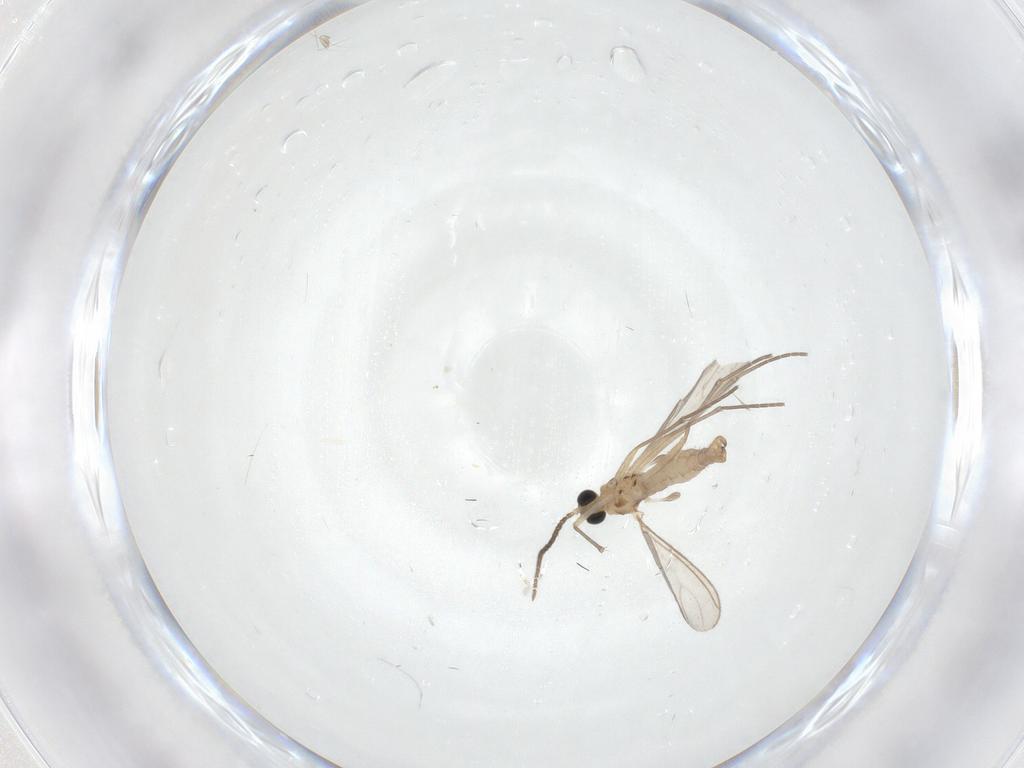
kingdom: Animalia
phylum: Arthropoda
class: Insecta
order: Diptera
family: Sciaridae
